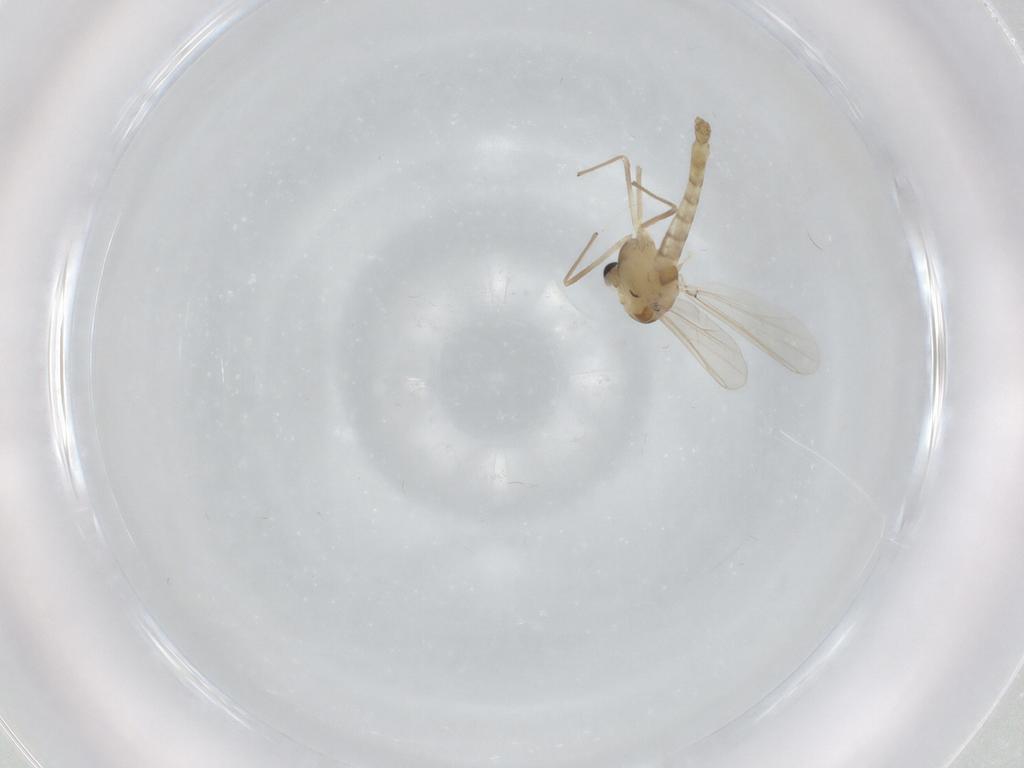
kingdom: Animalia
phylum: Arthropoda
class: Insecta
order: Diptera
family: Chironomidae
